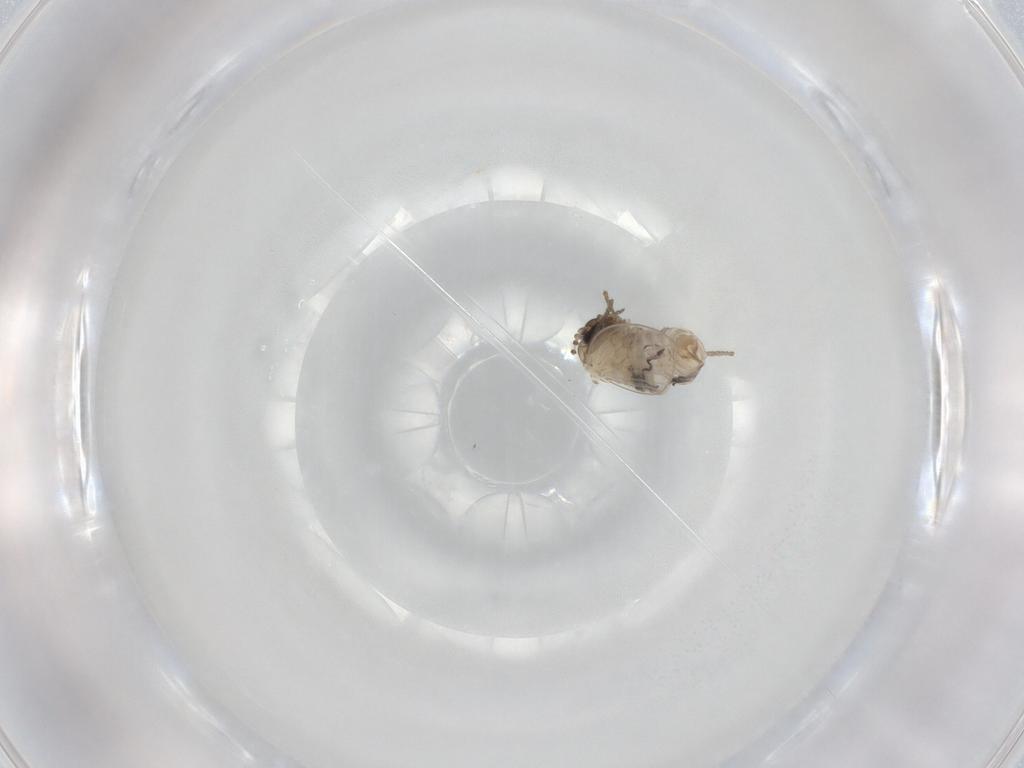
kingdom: Animalia
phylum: Arthropoda
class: Insecta
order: Diptera
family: Psychodidae
